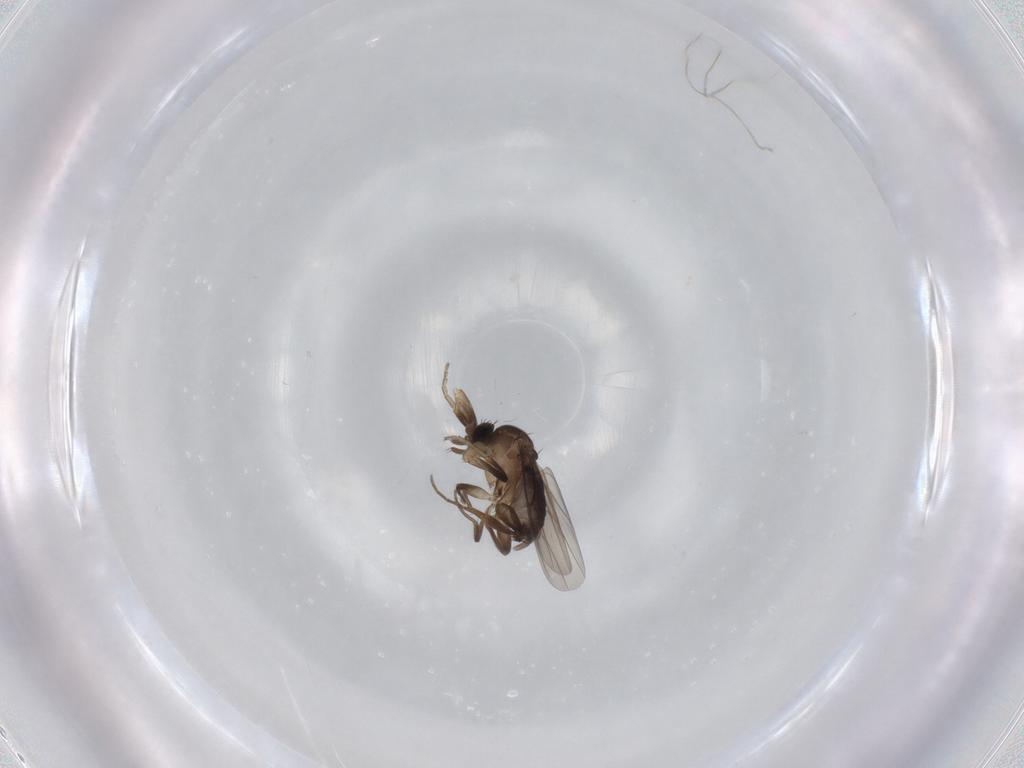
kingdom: Animalia
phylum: Arthropoda
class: Insecta
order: Diptera
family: Phoridae
